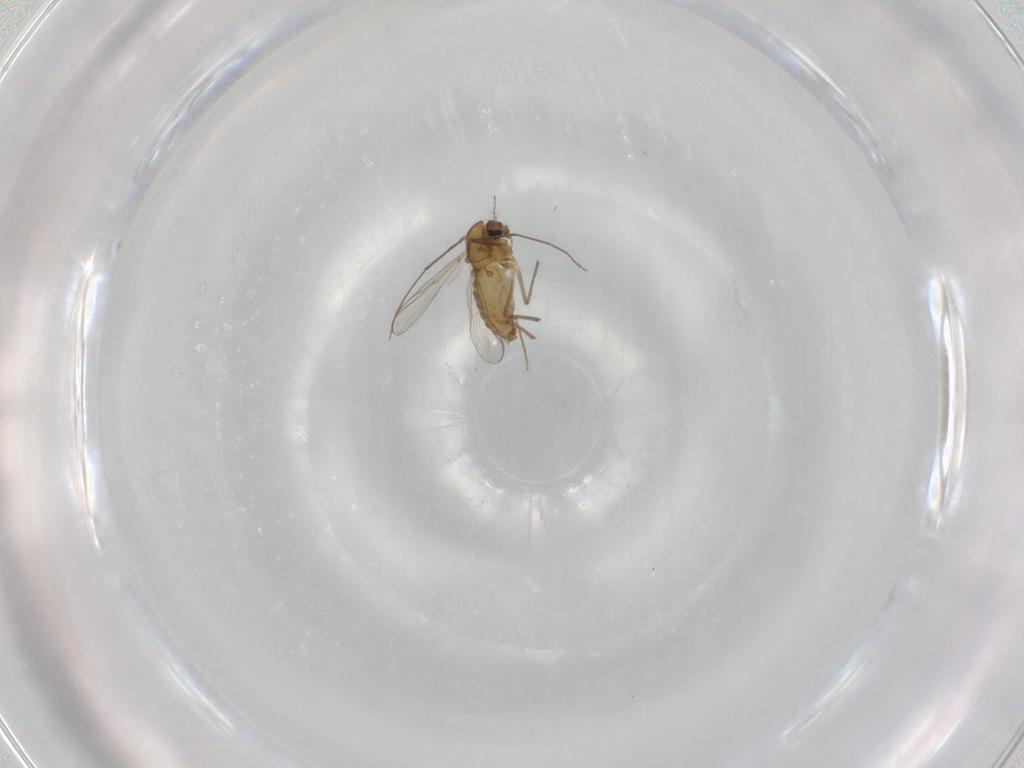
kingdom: Animalia
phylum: Arthropoda
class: Insecta
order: Diptera
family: Chironomidae
